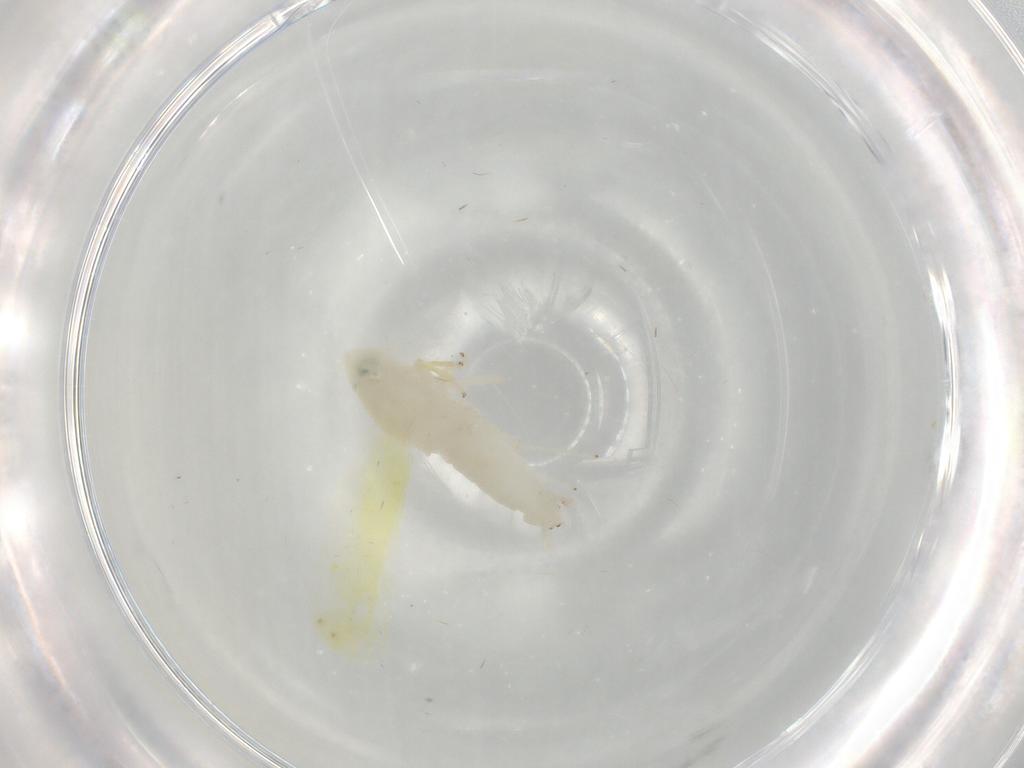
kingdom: Animalia
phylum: Arthropoda
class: Insecta
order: Hemiptera
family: Cicadellidae
